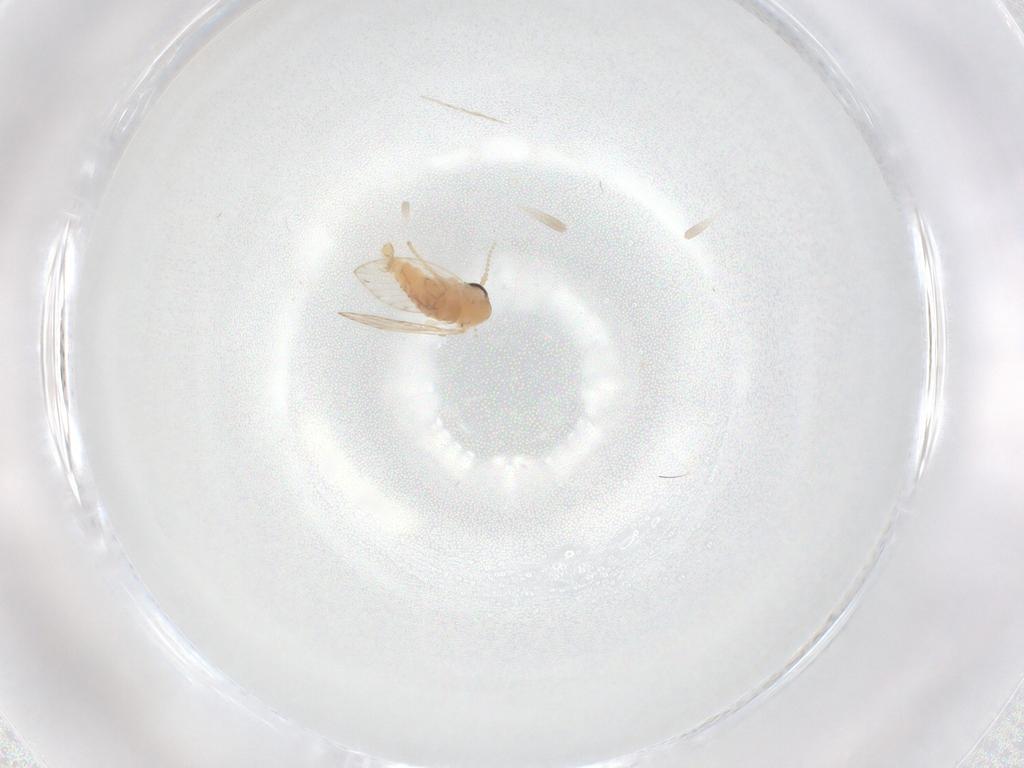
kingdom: Animalia
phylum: Arthropoda
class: Insecta
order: Diptera
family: Psychodidae
